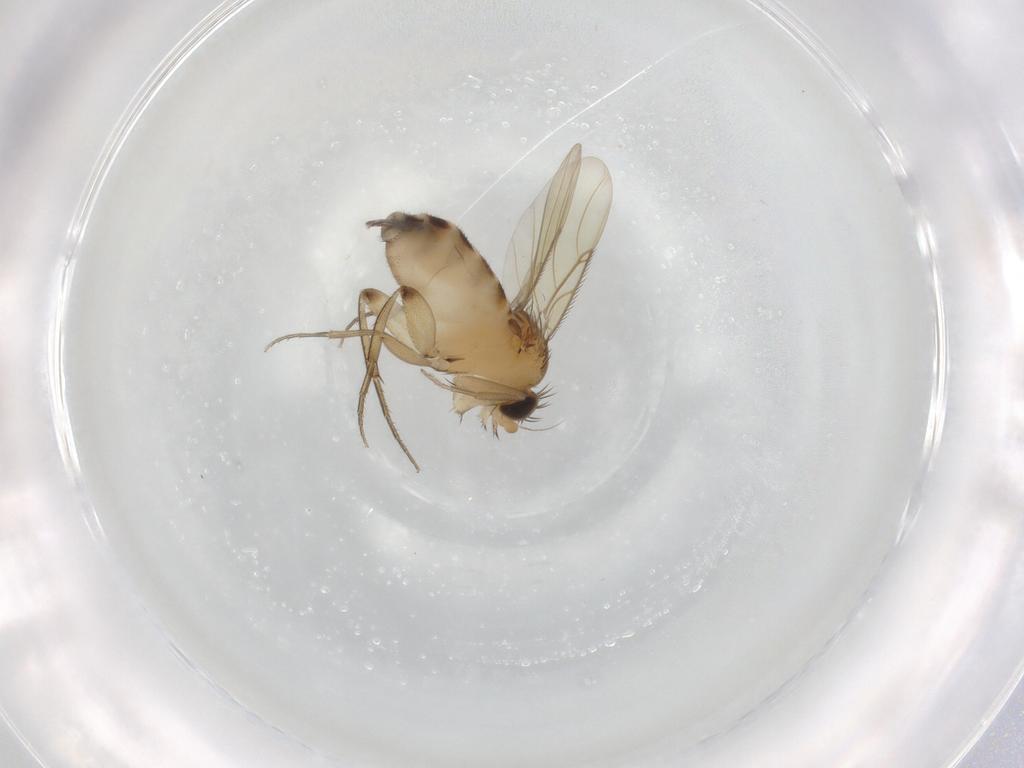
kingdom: Animalia
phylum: Arthropoda
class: Insecta
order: Diptera
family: Phoridae
